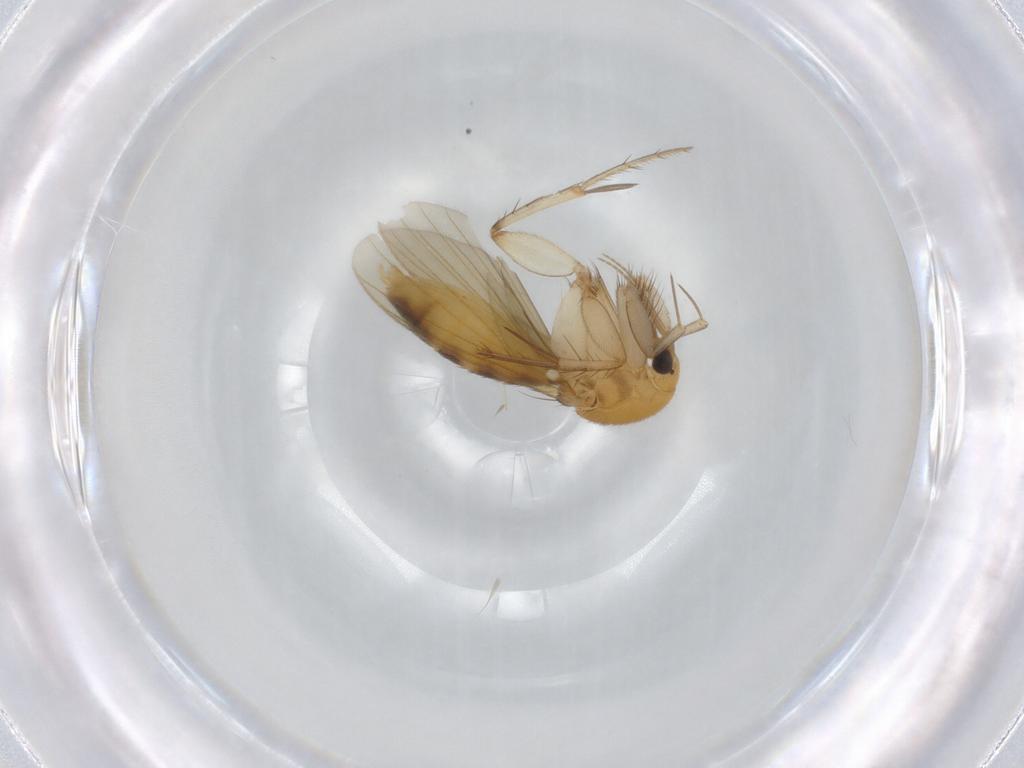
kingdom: Animalia
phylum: Arthropoda
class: Insecta
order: Diptera
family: Mycetophilidae
